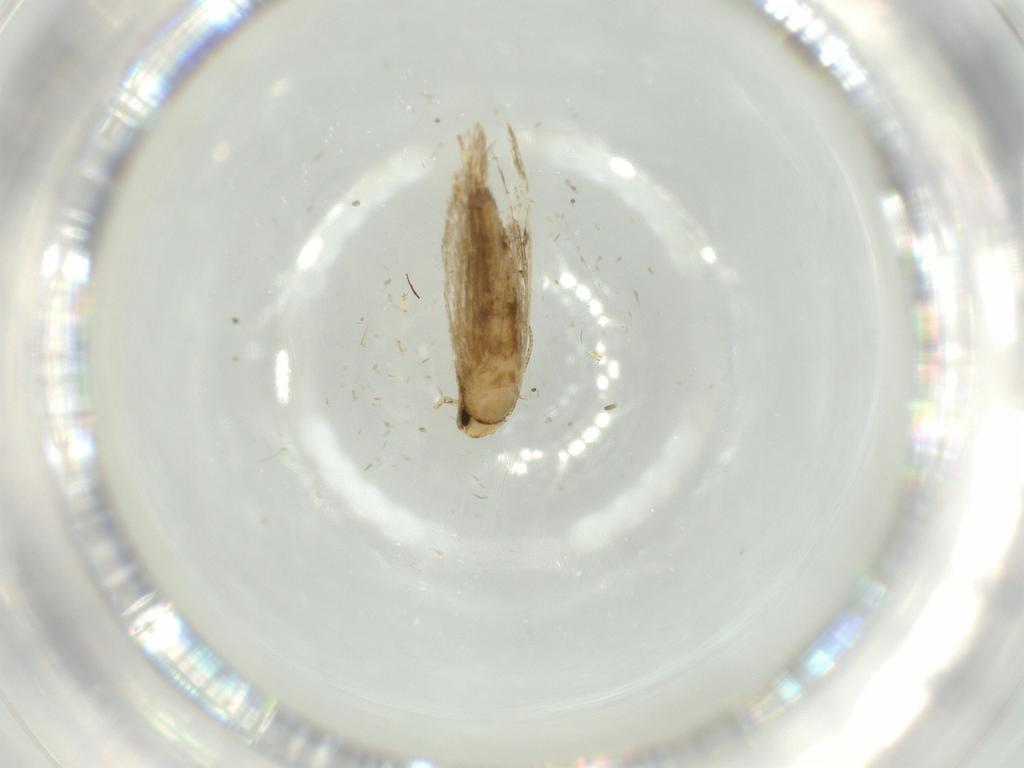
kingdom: Animalia
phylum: Arthropoda
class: Insecta
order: Lepidoptera
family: Tineidae
